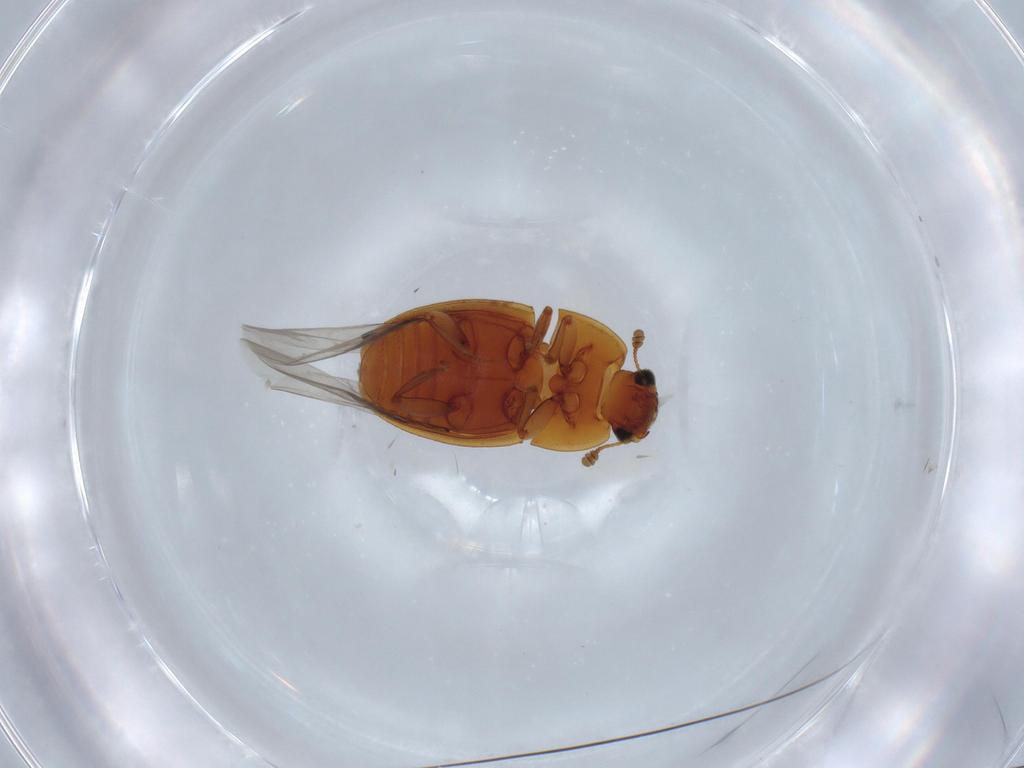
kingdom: Animalia
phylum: Arthropoda
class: Insecta
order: Coleoptera
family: Nitidulidae
